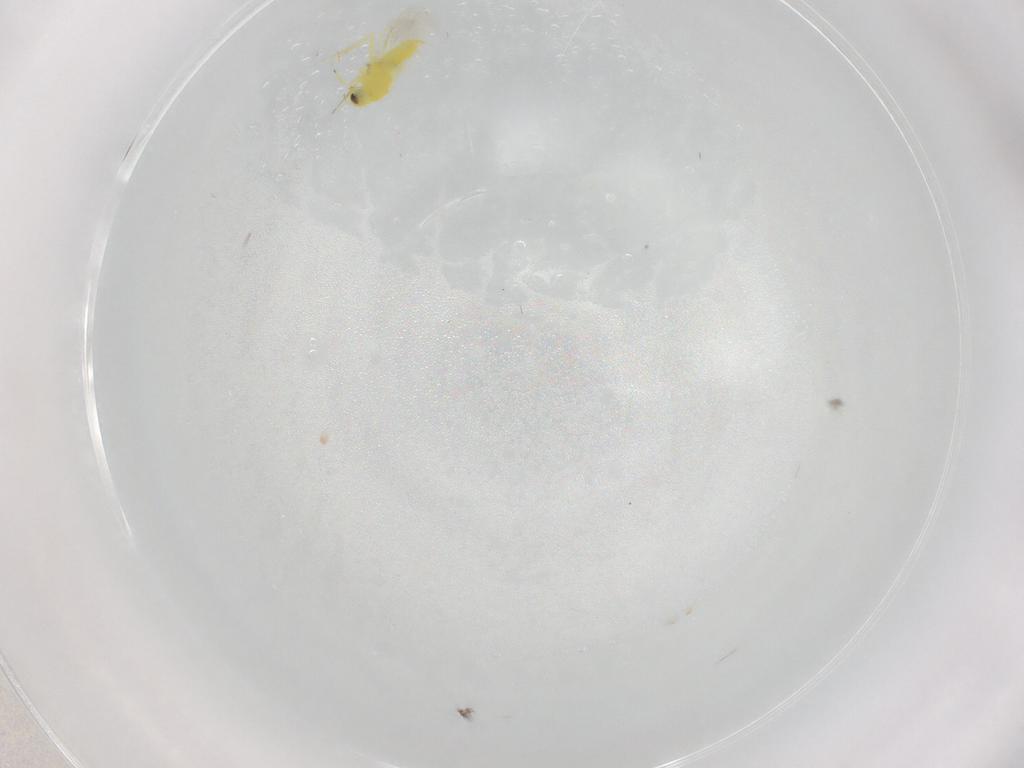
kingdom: Animalia
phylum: Arthropoda
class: Insecta
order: Hemiptera
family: Aleyrodidae
